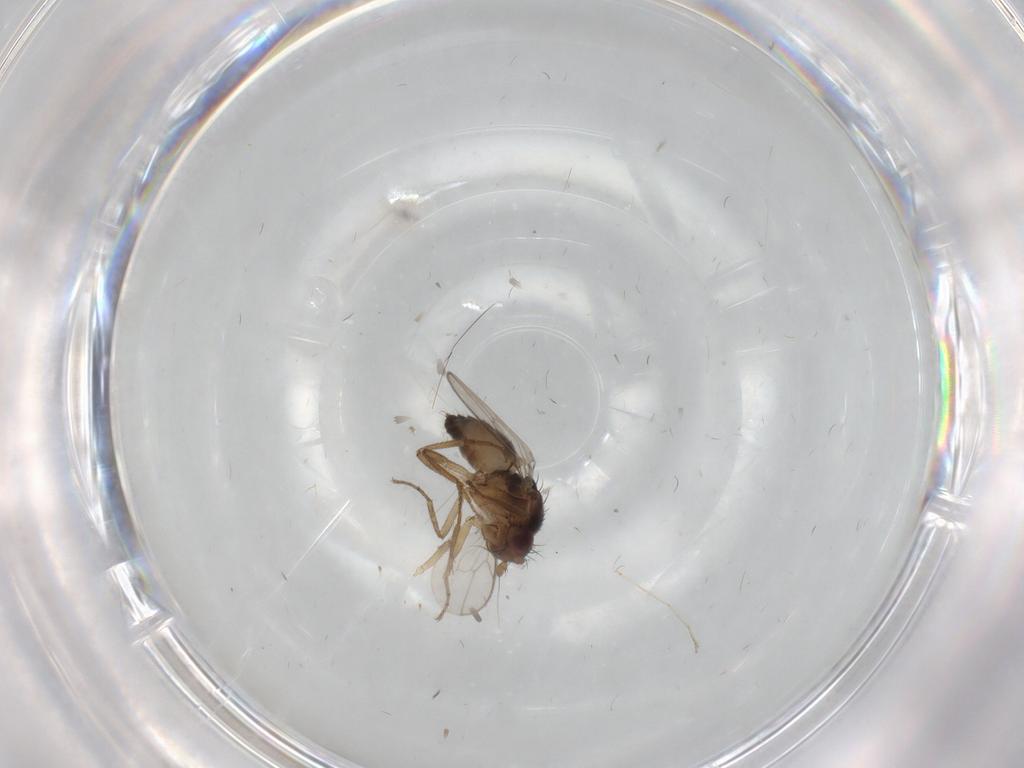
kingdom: Animalia
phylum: Arthropoda
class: Insecta
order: Diptera
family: Sphaeroceridae
